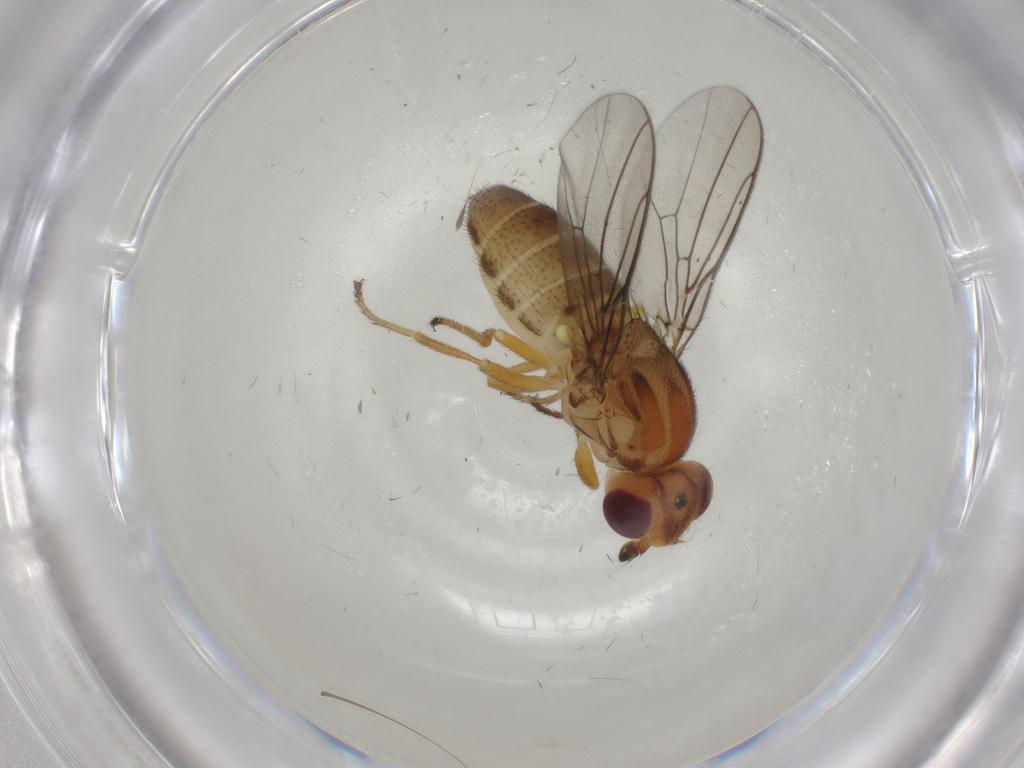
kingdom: Animalia
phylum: Arthropoda
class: Insecta
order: Diptera
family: Chloropidae
